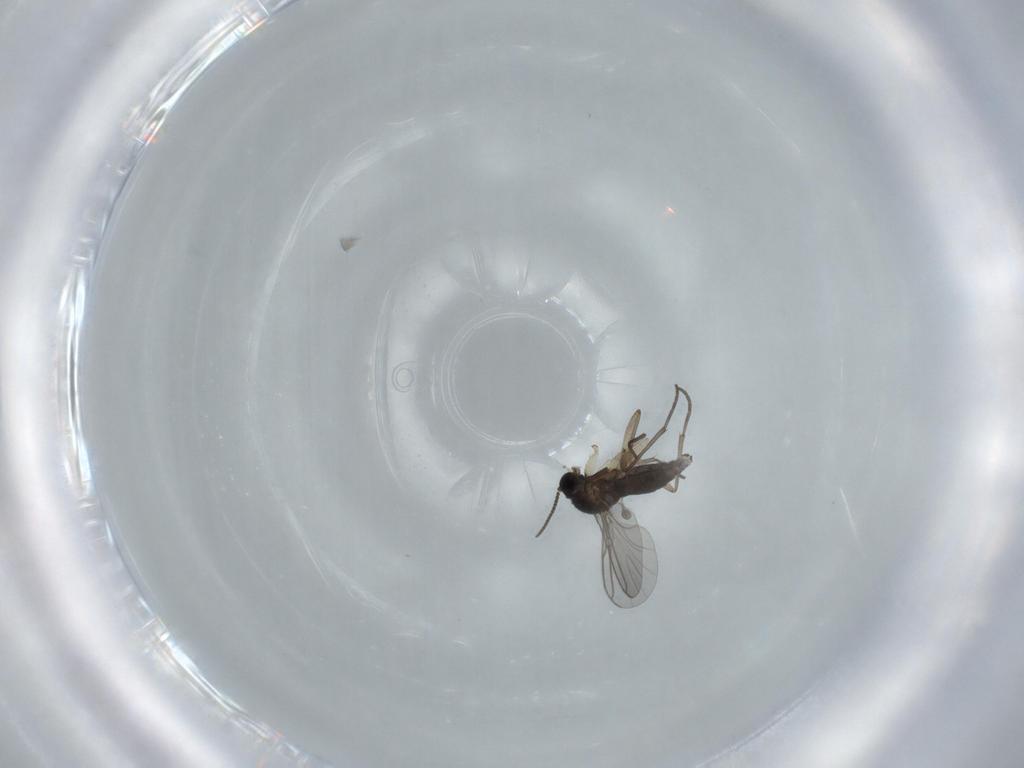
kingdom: Animalia
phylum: Arthropoda
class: Insecta
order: Diptera
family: Sciaridae
